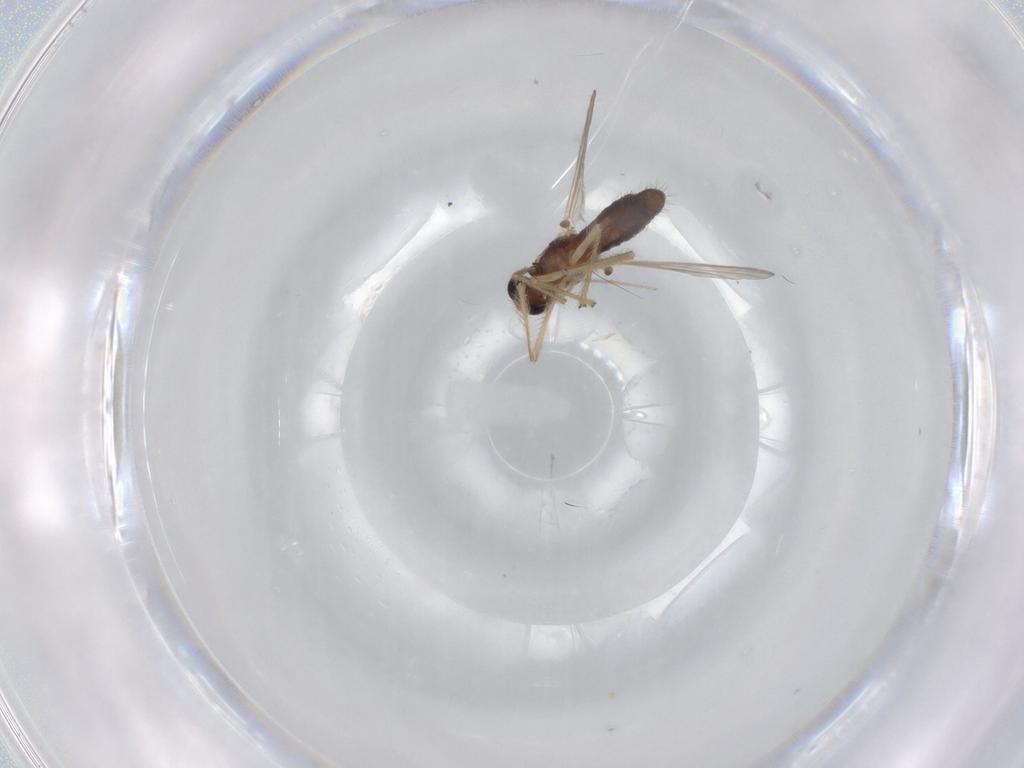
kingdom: Animalia
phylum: Arthropoda
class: Insecta
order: Diptera
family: Chironomidae
